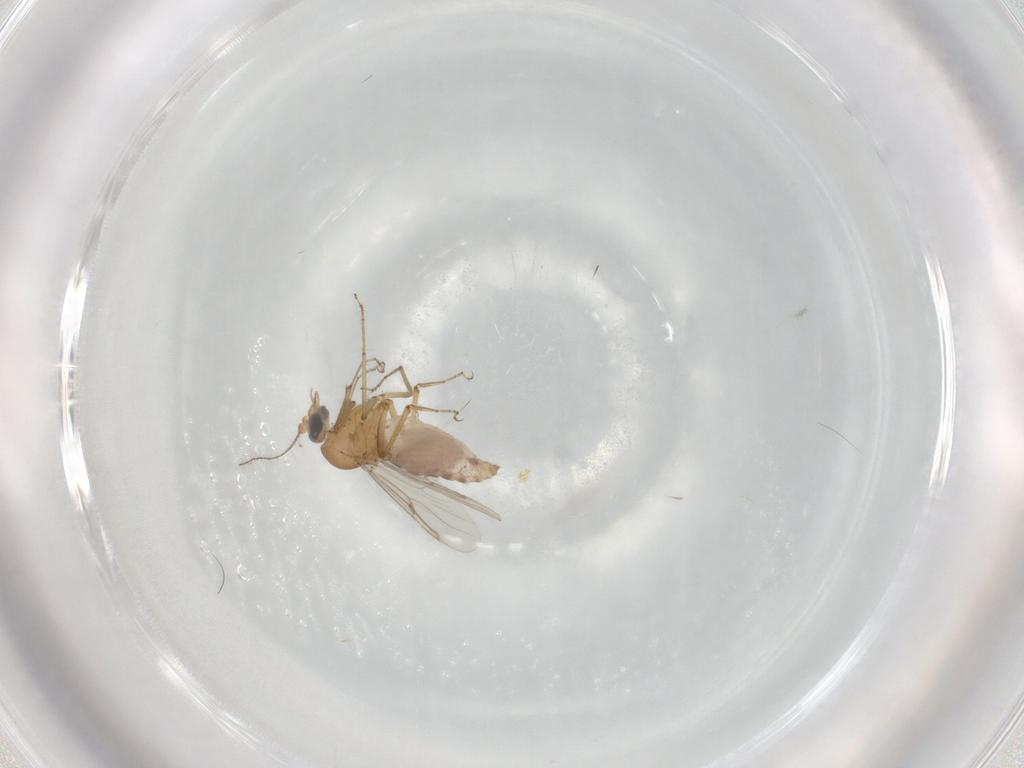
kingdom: Animalia
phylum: Arthropoda
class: Insecta
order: Diptera
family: Ceratopogonidae
